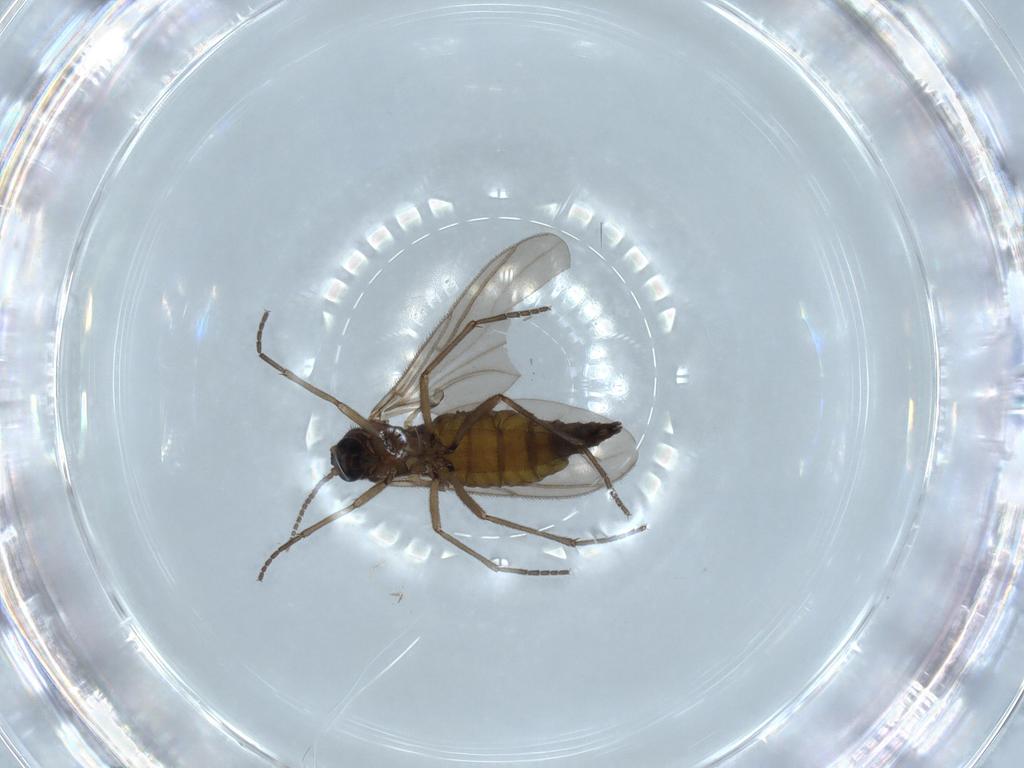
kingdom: Animalia
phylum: Arthropoda
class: Insecta
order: Diptera
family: Sciaridae
